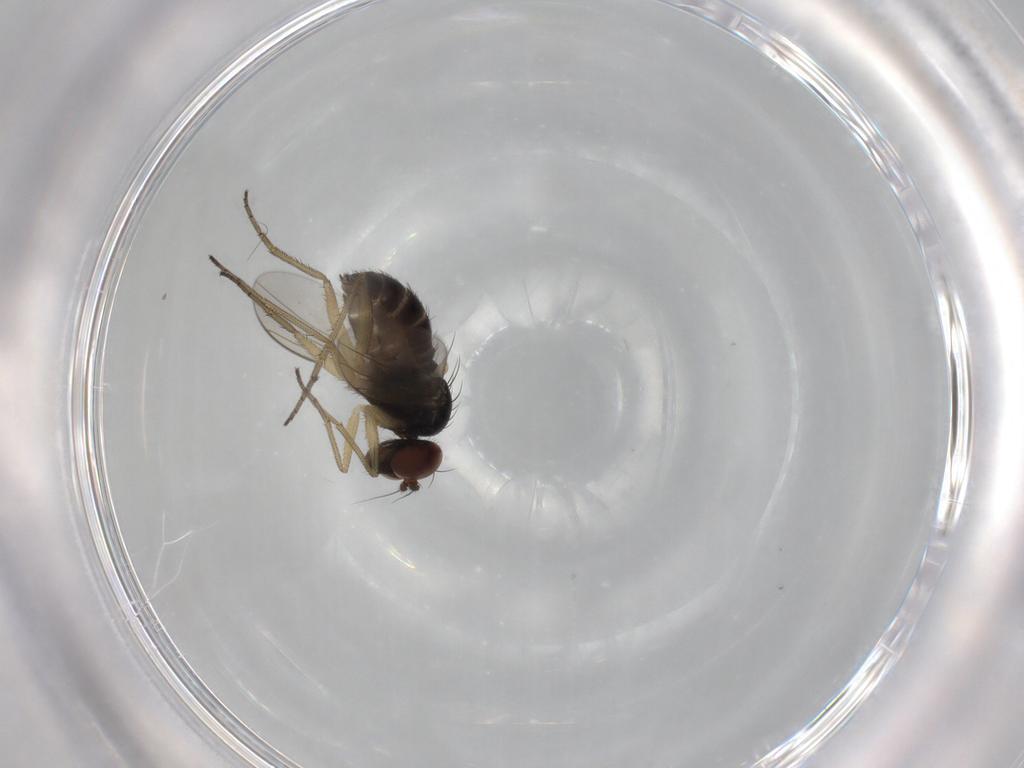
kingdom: Animalia
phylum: Arthropoda
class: Insecta
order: Diptera
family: Dolichopodidae
